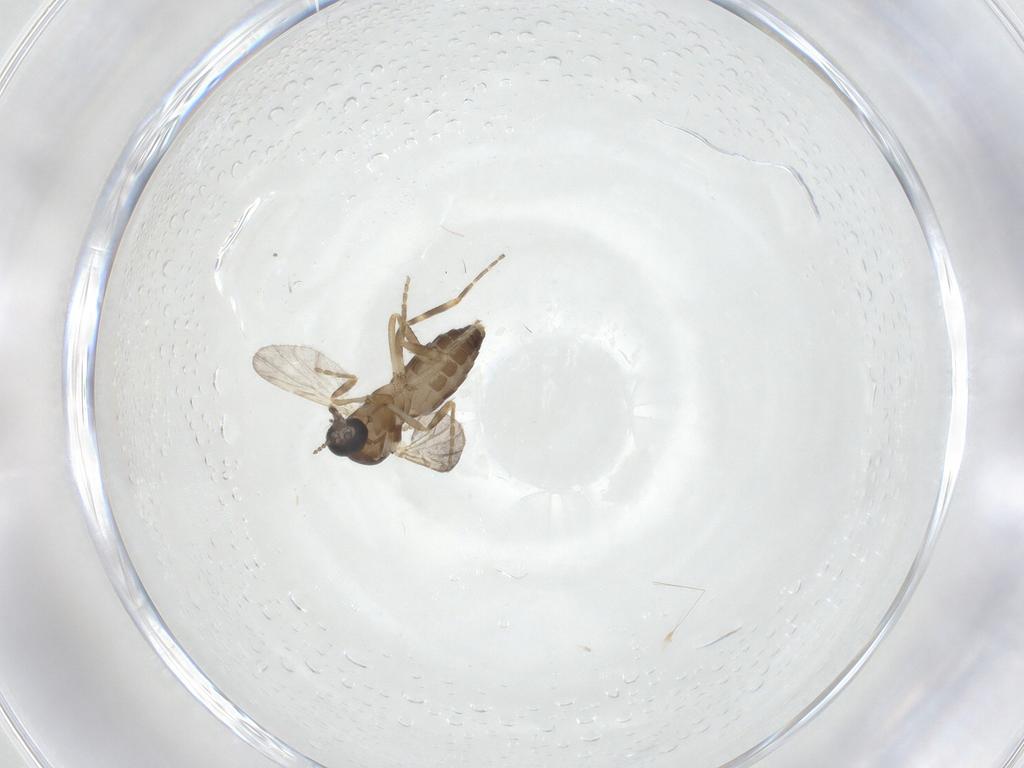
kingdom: Animalia
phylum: Arthropoda
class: Insecta
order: Diptera
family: Ceratopogonidae
